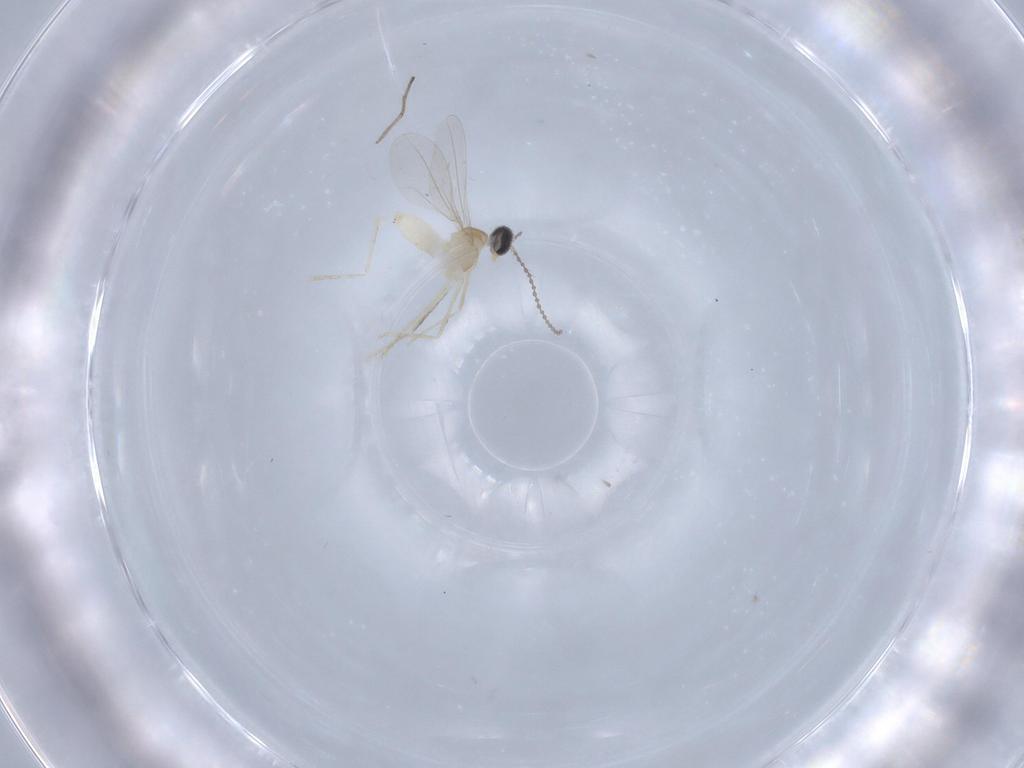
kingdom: Animalia
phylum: Arthropoda
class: Insecta
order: Diptera
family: Cecidomyiidae
